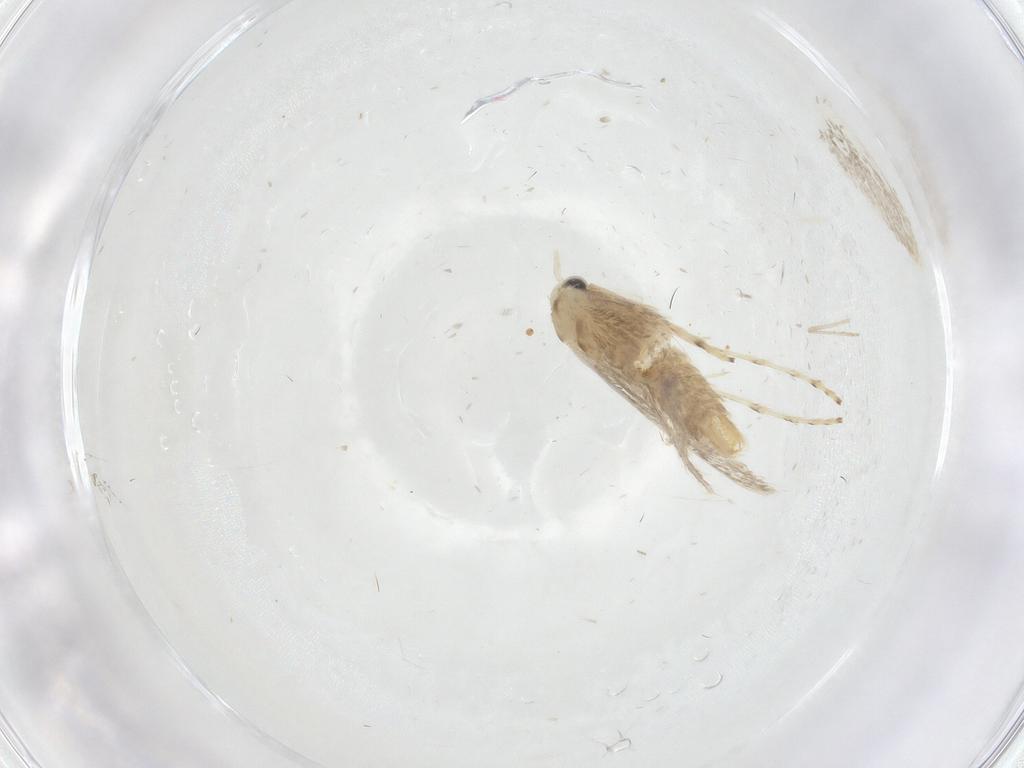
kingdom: Animalia
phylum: Arthropoda
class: Insecta
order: Lepidoptera
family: Gracillariidae
